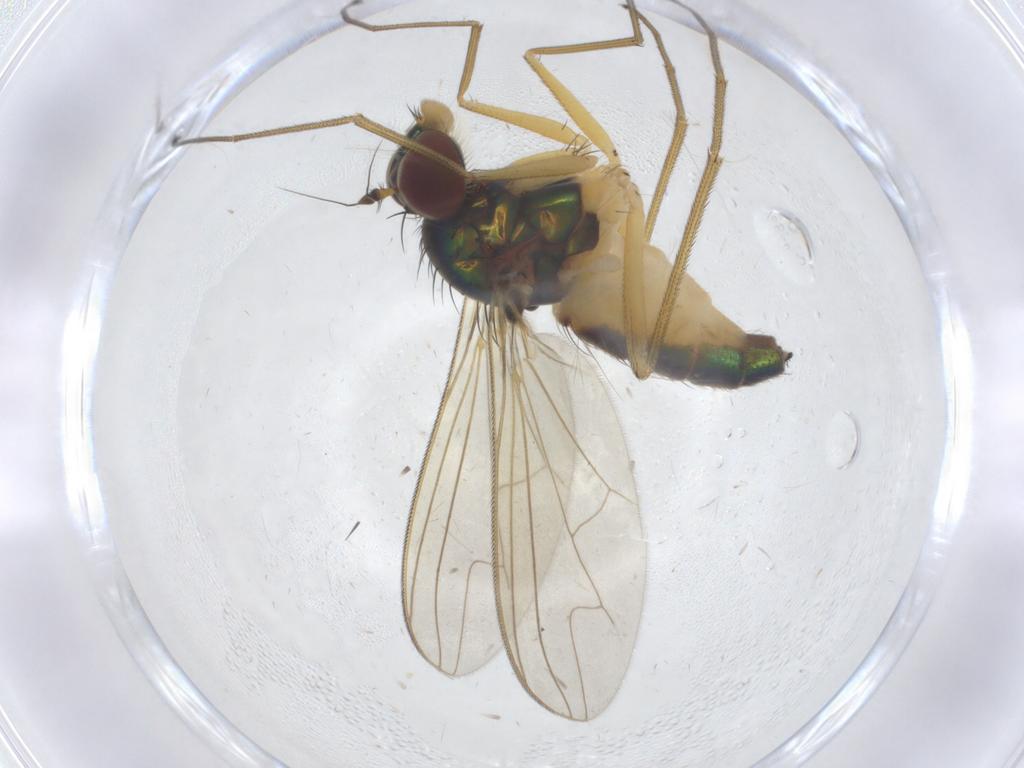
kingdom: Animalia
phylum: Arthropoda
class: Insecta
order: Diptera
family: Dolichopodidae
